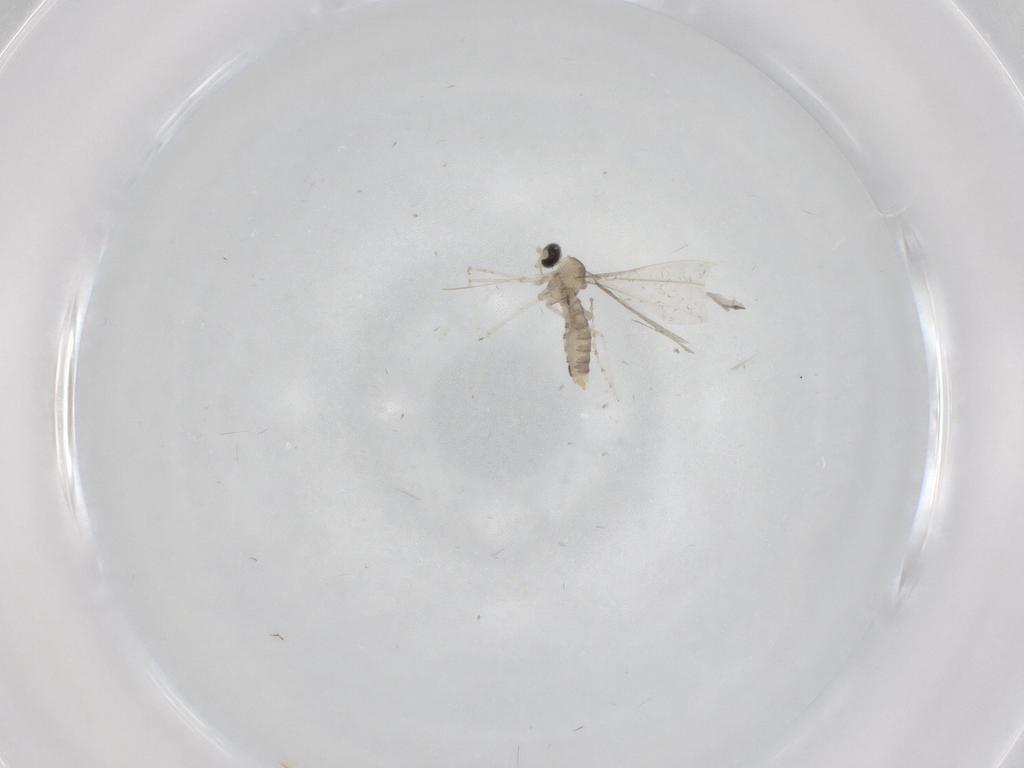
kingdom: Animalia
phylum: Arthropoda
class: Insecta
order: Diptera
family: Cecidomyiidae
